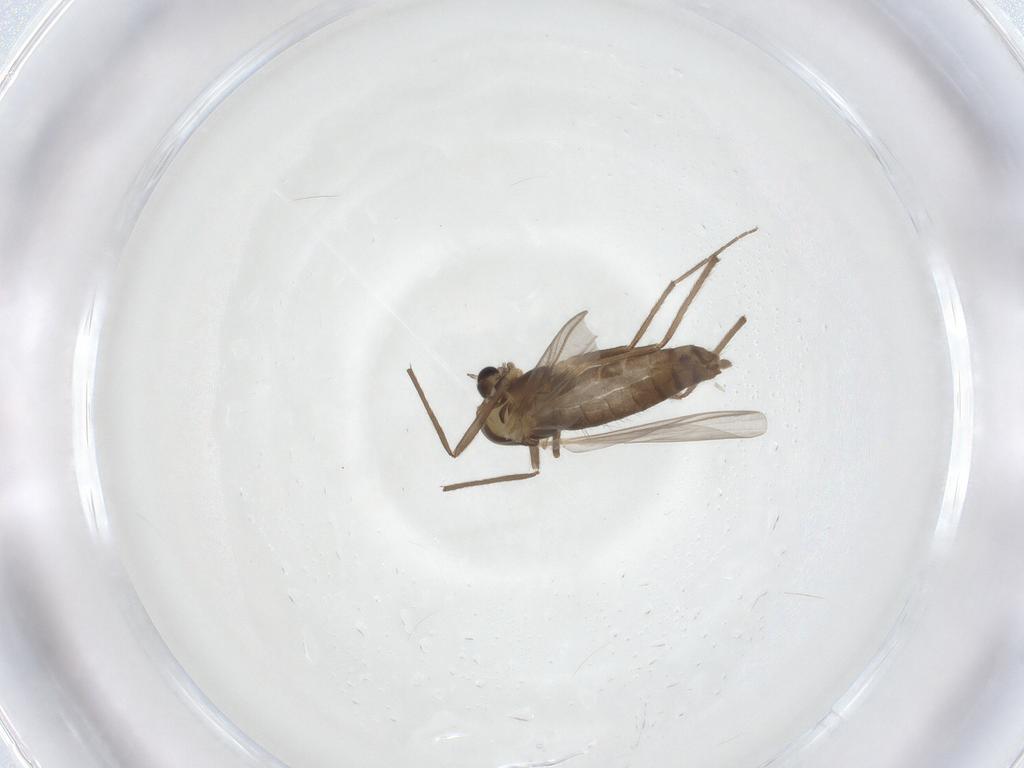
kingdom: Animalia
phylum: Arthropoda
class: Insecta
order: Diptera
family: Chironomidae
